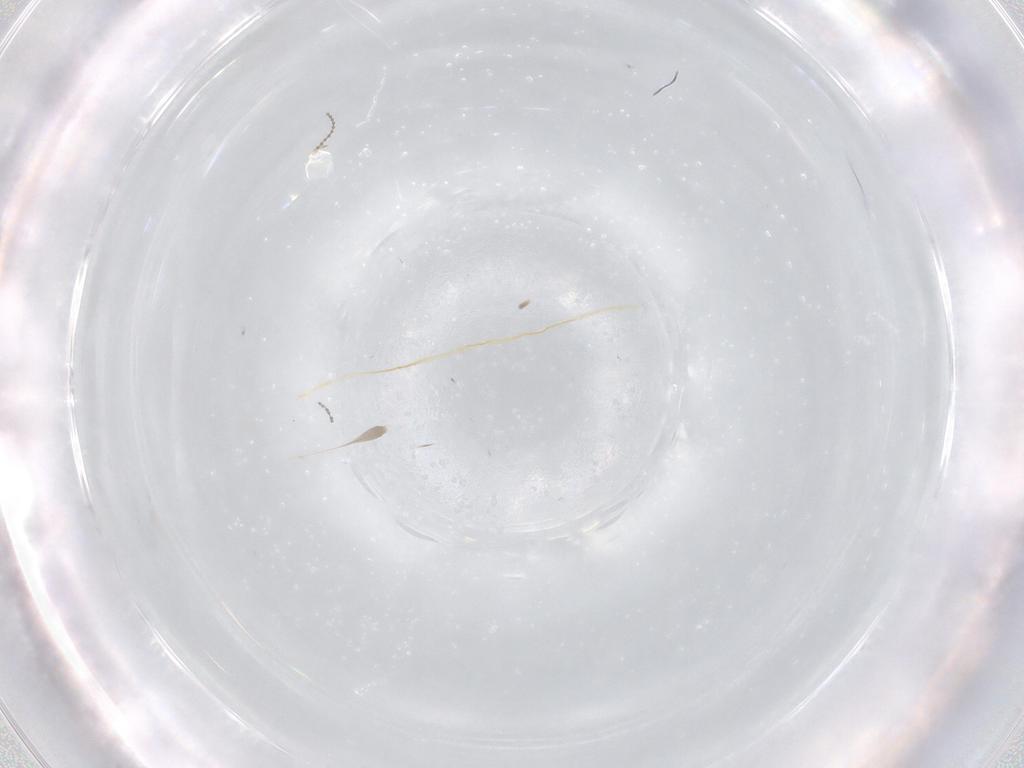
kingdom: Animalia
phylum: Arthropoda
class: Insecta
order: Diptera
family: Cecidomyiidae
